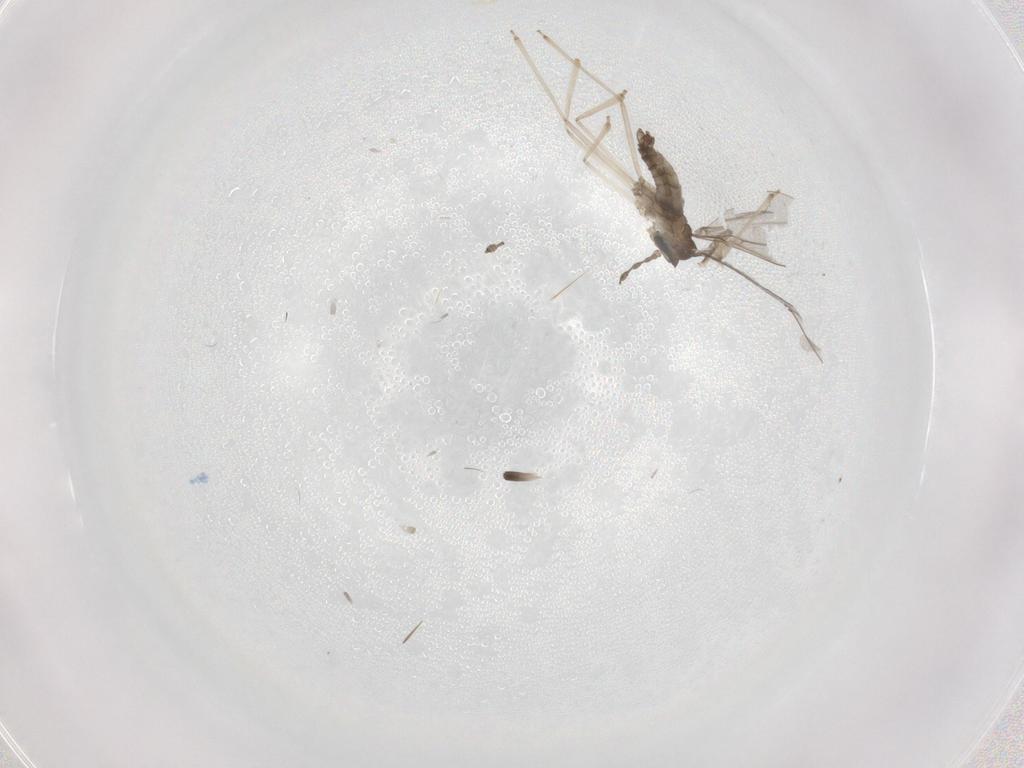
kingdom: Animalia
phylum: Arthropoda
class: Insecta
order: Diptera
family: Cecidomyiidae
